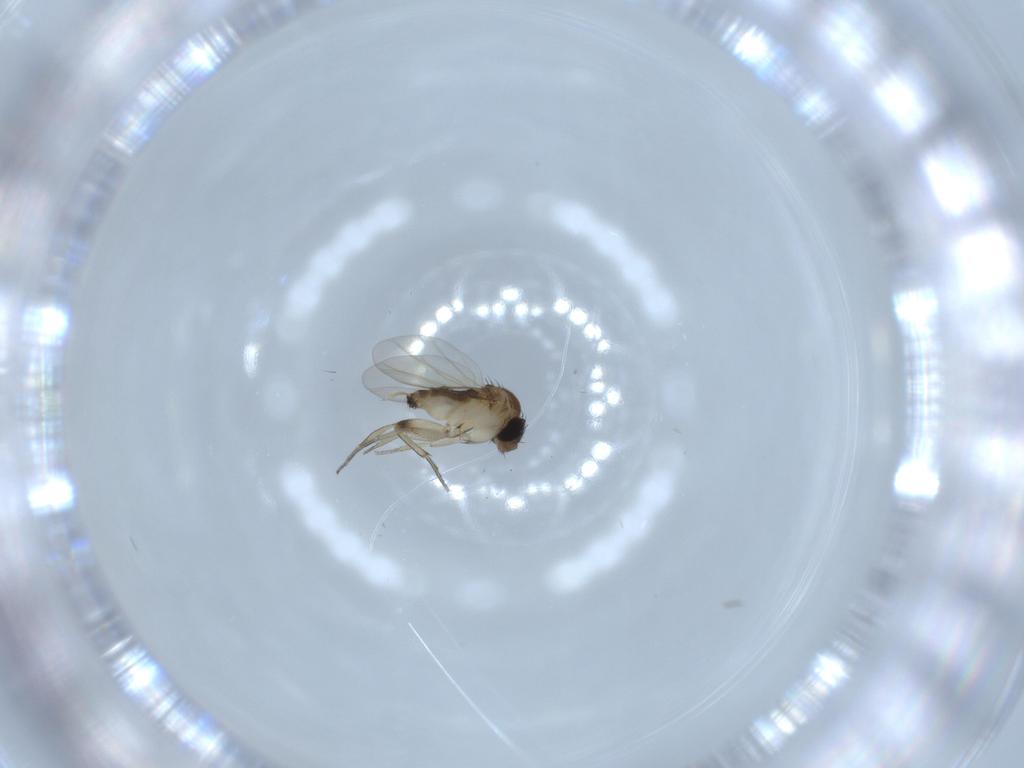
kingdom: Animalia
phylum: Arthropoda
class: Insecta
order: Diptera
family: Phoridae
